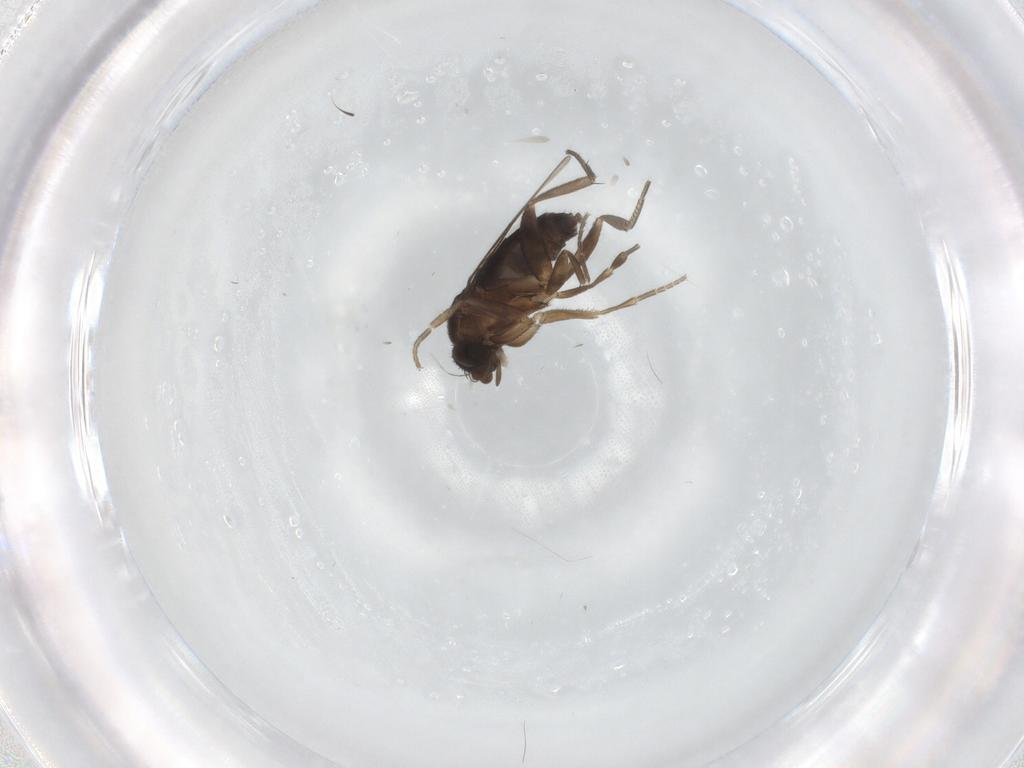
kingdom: Animalia
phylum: Arthropoda
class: Insecta
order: Diptera
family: Phoridae
